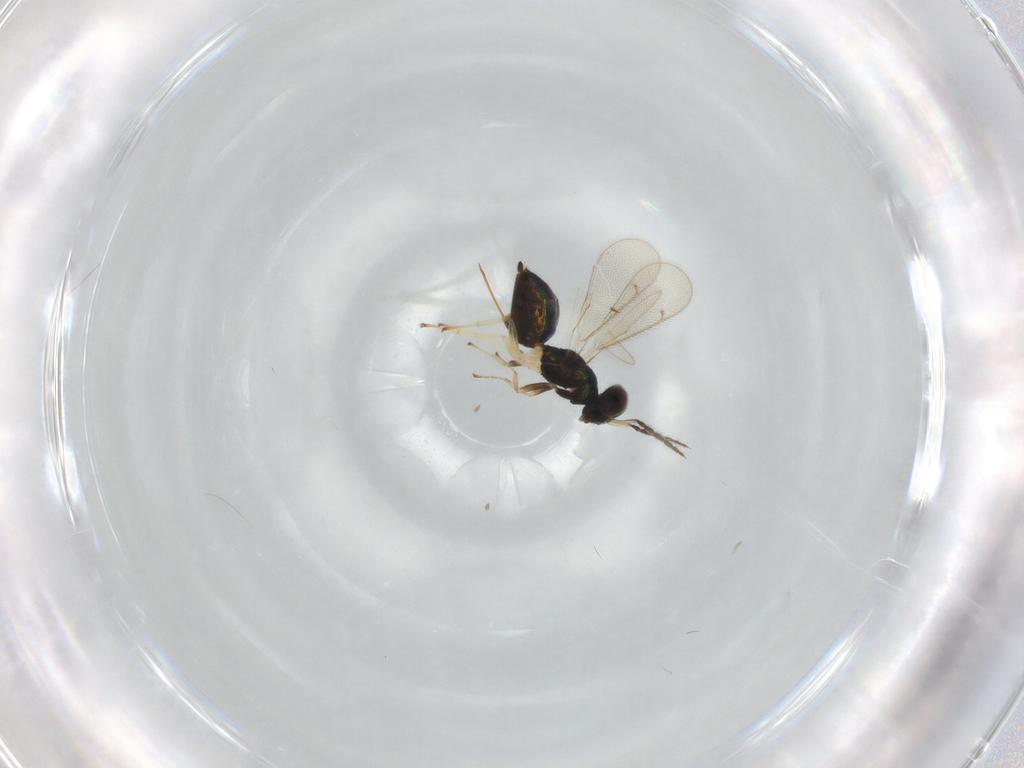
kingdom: Animalia
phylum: Arthropoda
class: Insecta
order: Hymenoptera
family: Eulophidae
